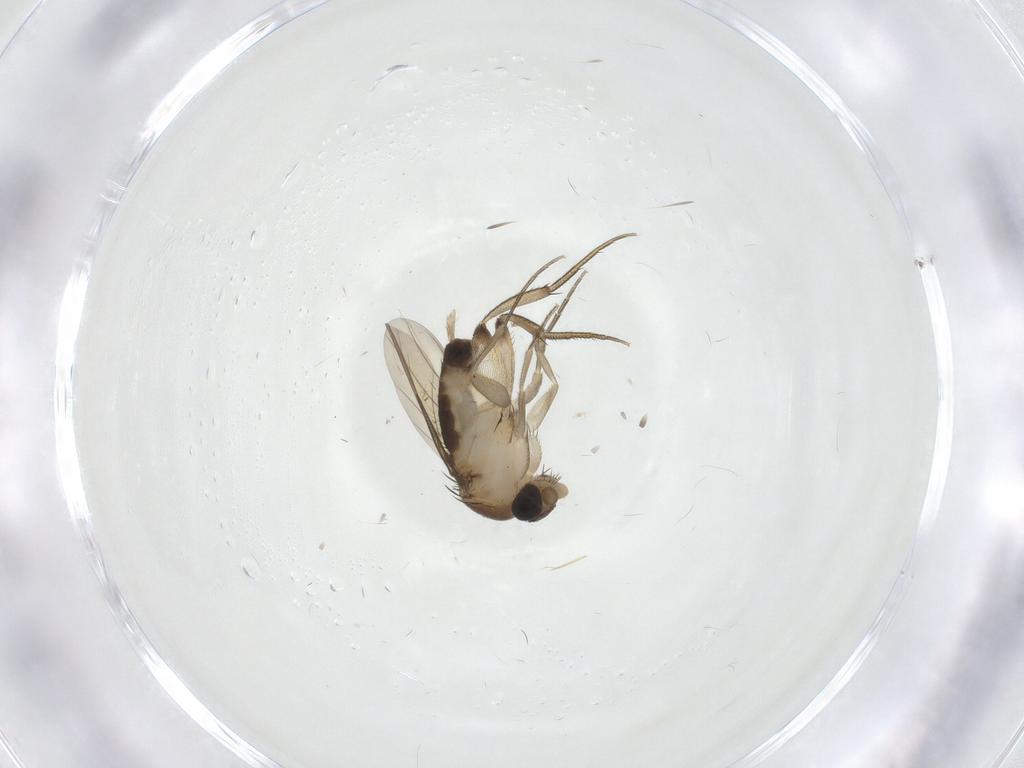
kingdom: Animalia
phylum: Arthropoda
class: Insecta
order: Diptera
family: Phoridae
